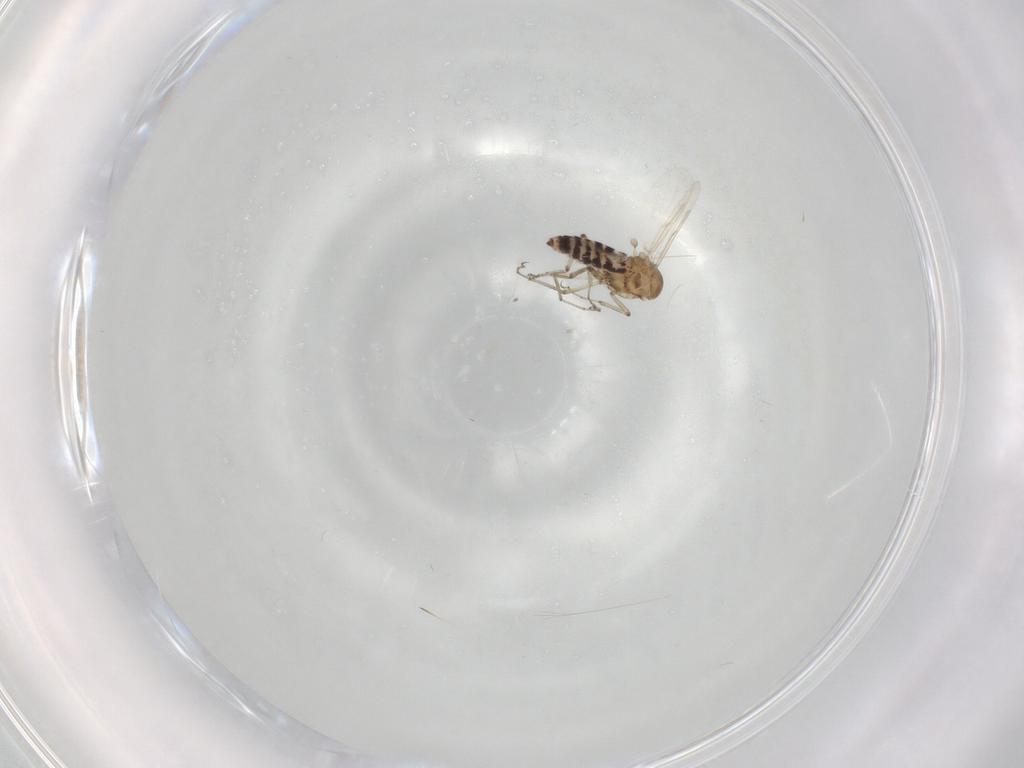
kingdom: Animalia
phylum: Arthropoda
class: Insecta
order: Diptera
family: Ceratopogonidae
